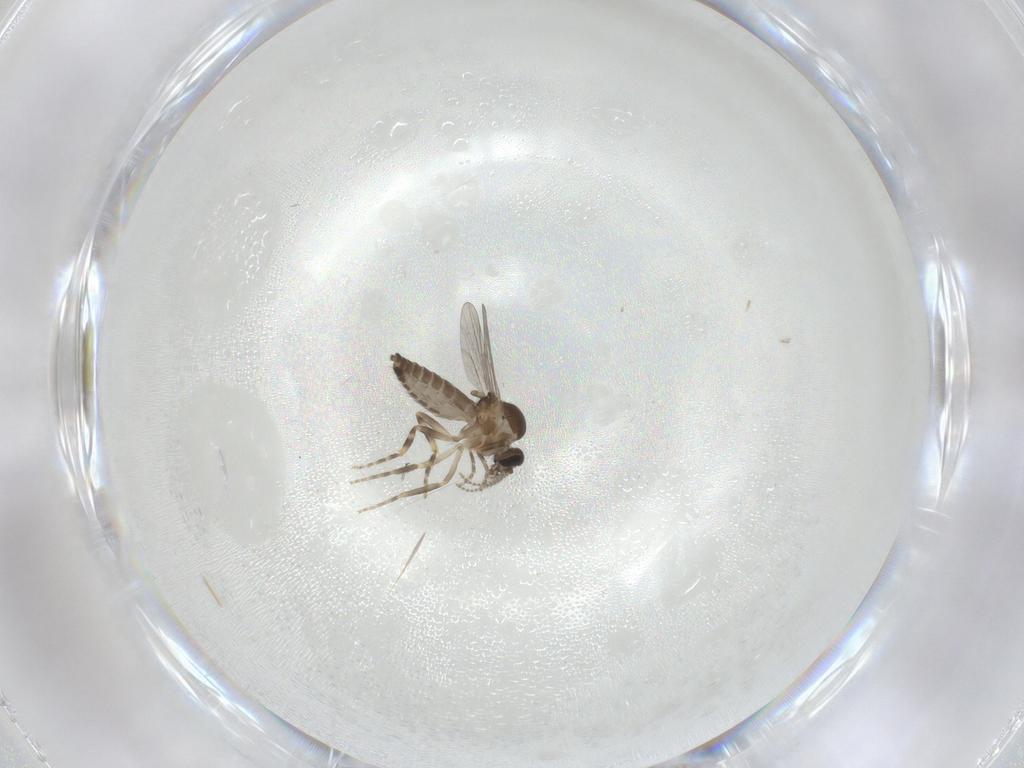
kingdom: Animalia
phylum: Arthropoda
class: Insecta
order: Diptera
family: Ceratopogonidae
